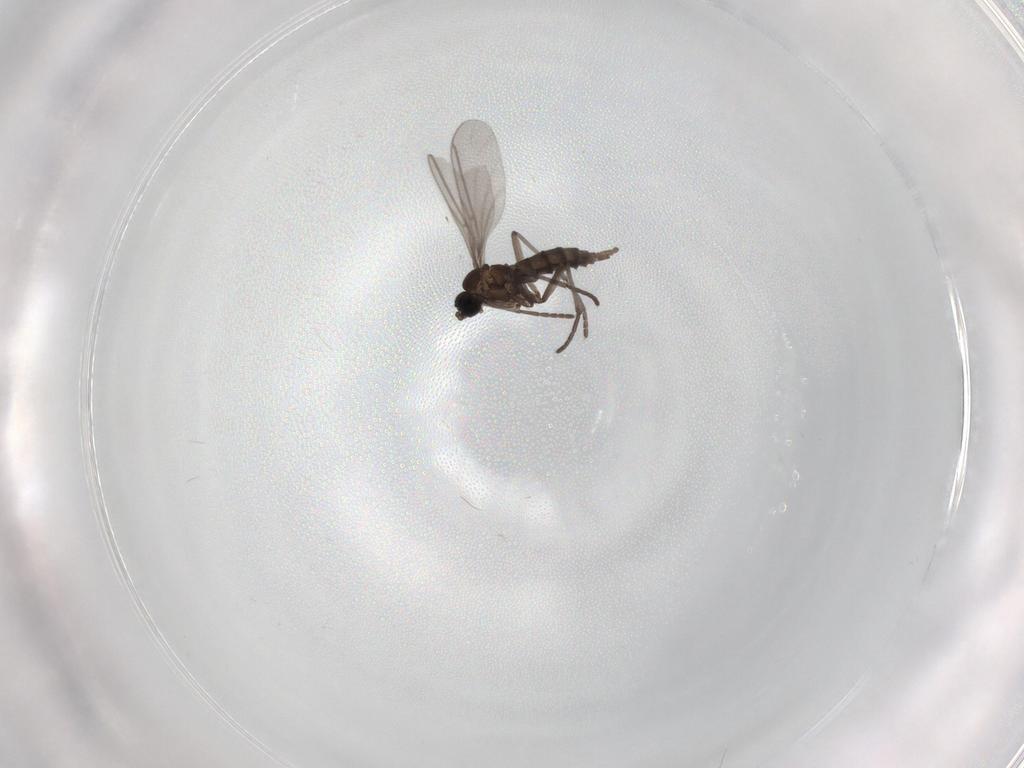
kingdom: Animalia
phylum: Arthropoda
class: Insecta
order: Diptera
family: Sciaridae
